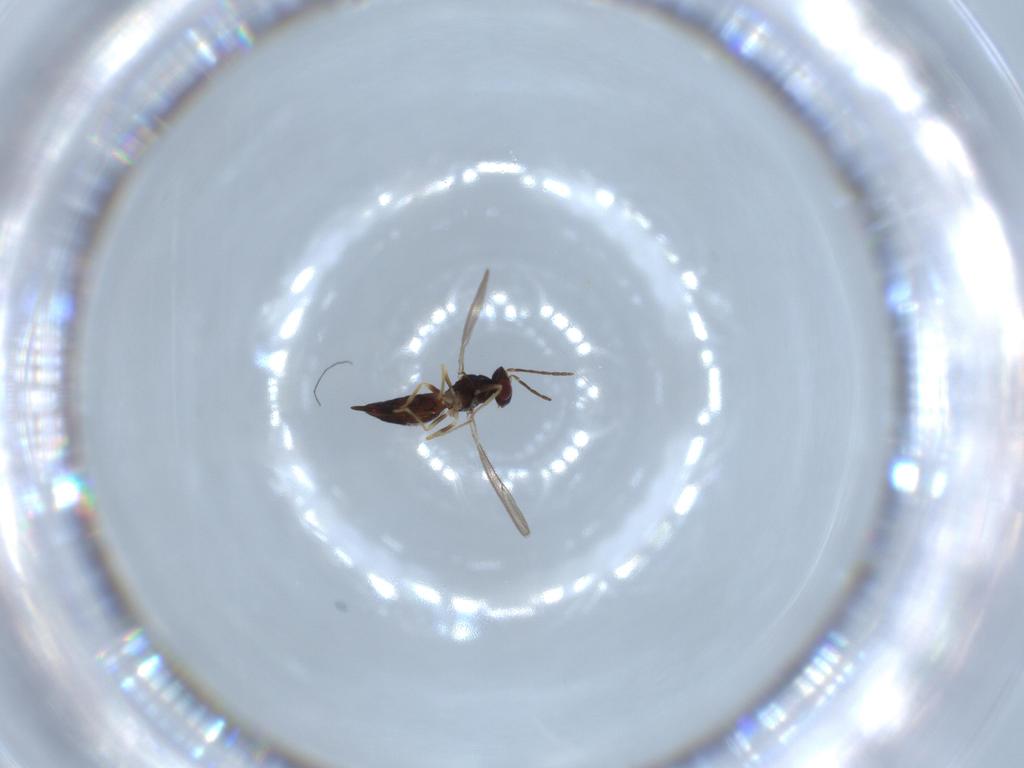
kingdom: Animalia
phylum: Arthropoda
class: Insecta
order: Hymenoptera
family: Eulophidae
